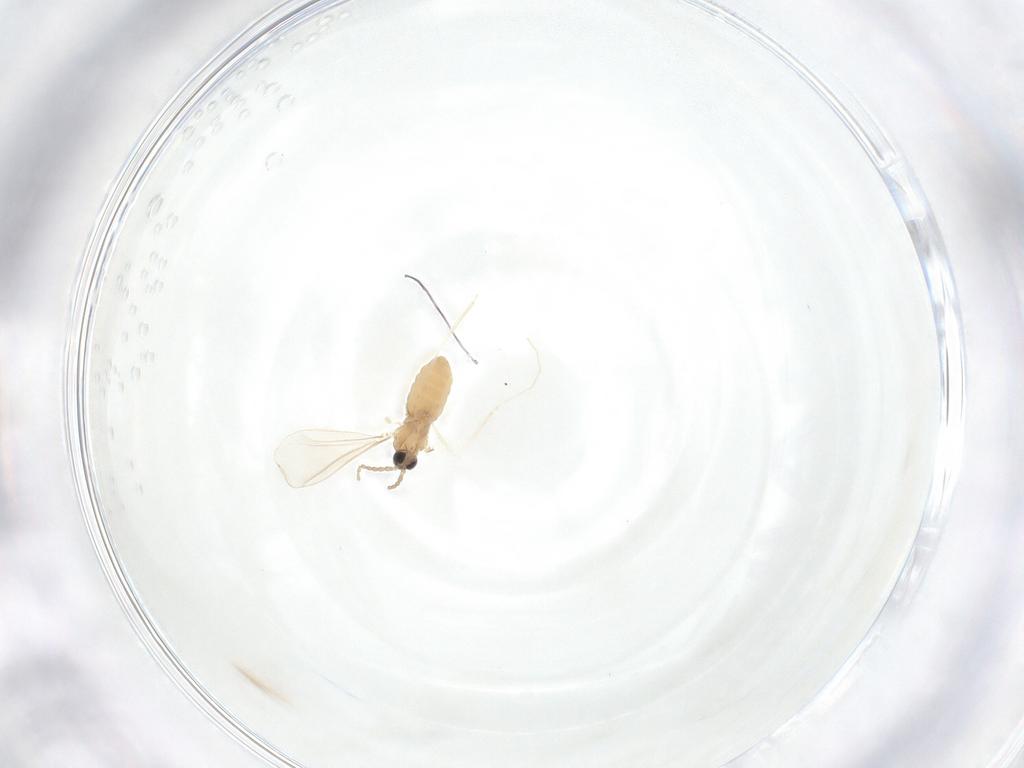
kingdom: Animalia
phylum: Arthropoda
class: Insecta
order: Diptera
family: Cecidomyiidae
